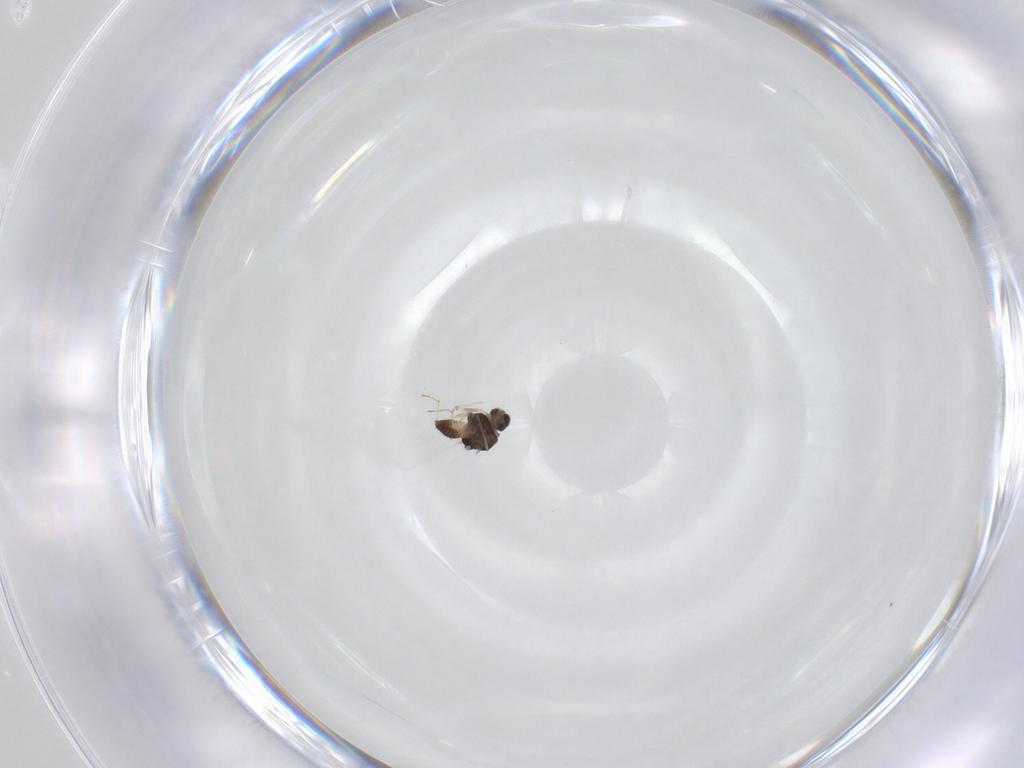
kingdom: Animalia
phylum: Arthropoda
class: Insecta
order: Diptera
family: Chironomidae
